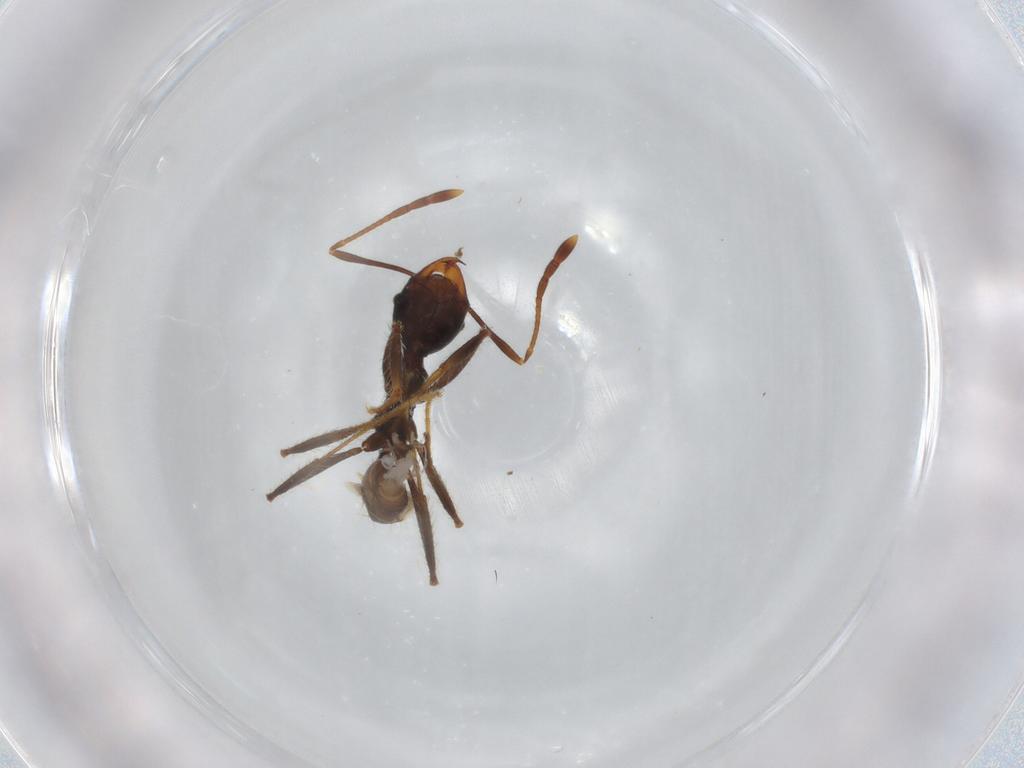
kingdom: Animalia
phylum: Arthropoda
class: Insecta
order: Hymenoptera
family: Formicidae
